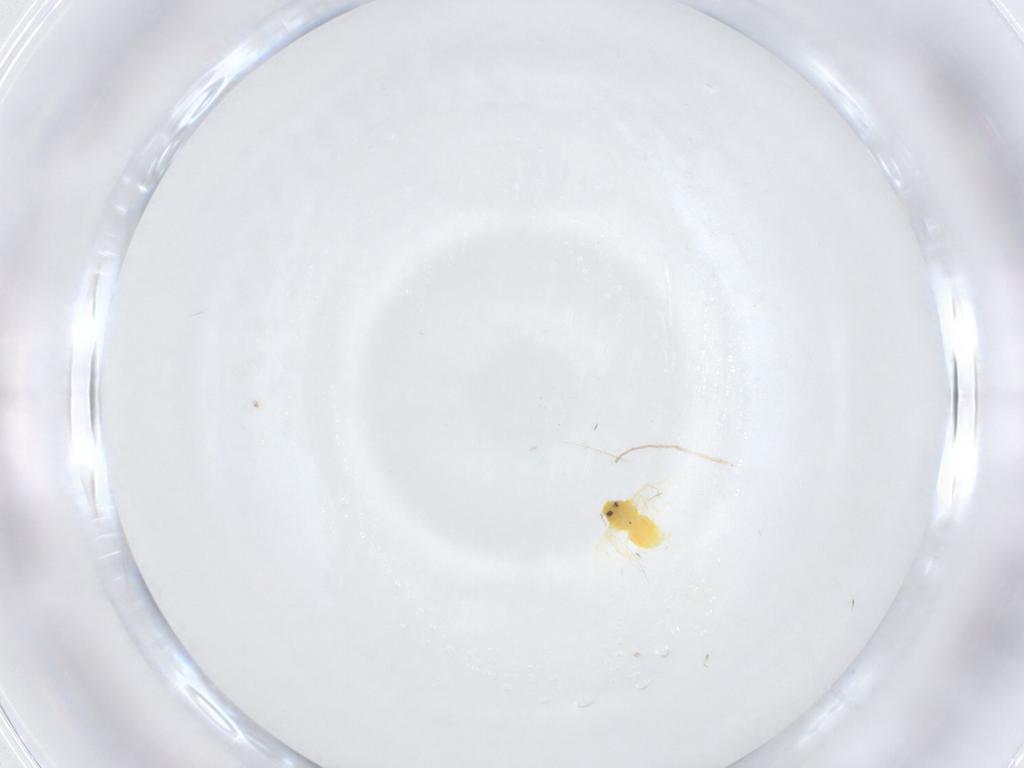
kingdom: Animalia
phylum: Arthropoda
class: Insecta
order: Hemiptera
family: Aleyrodidae
